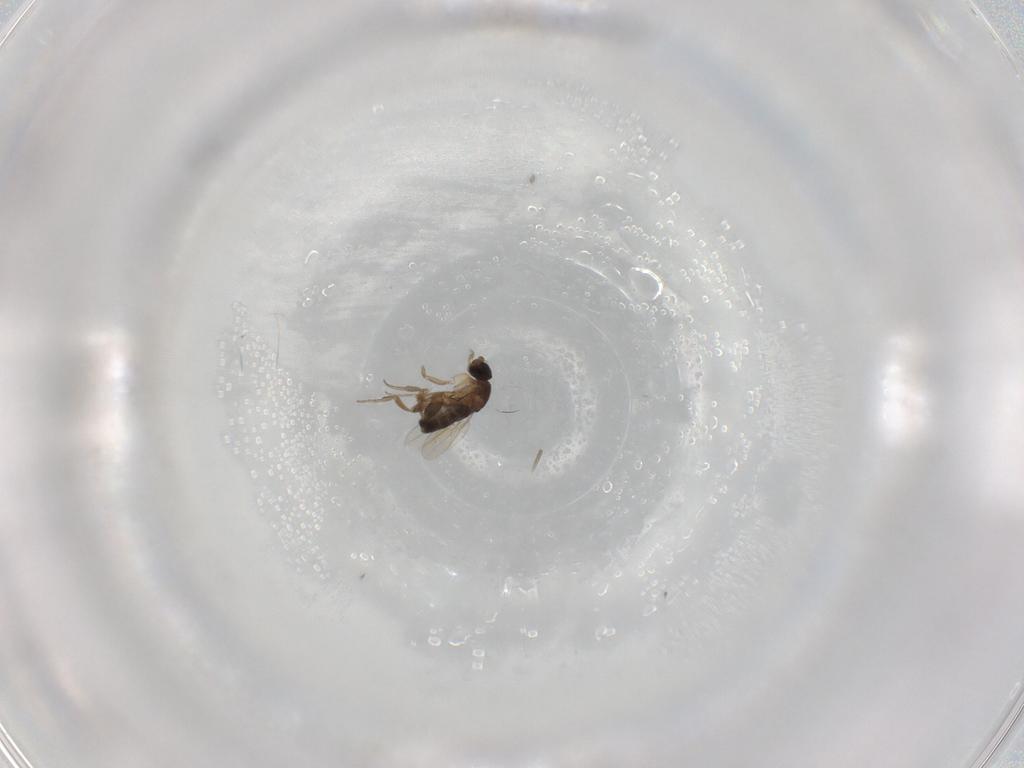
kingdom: Animalia
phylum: Arthropoda
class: Insecta
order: Diptera
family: Phoridae
